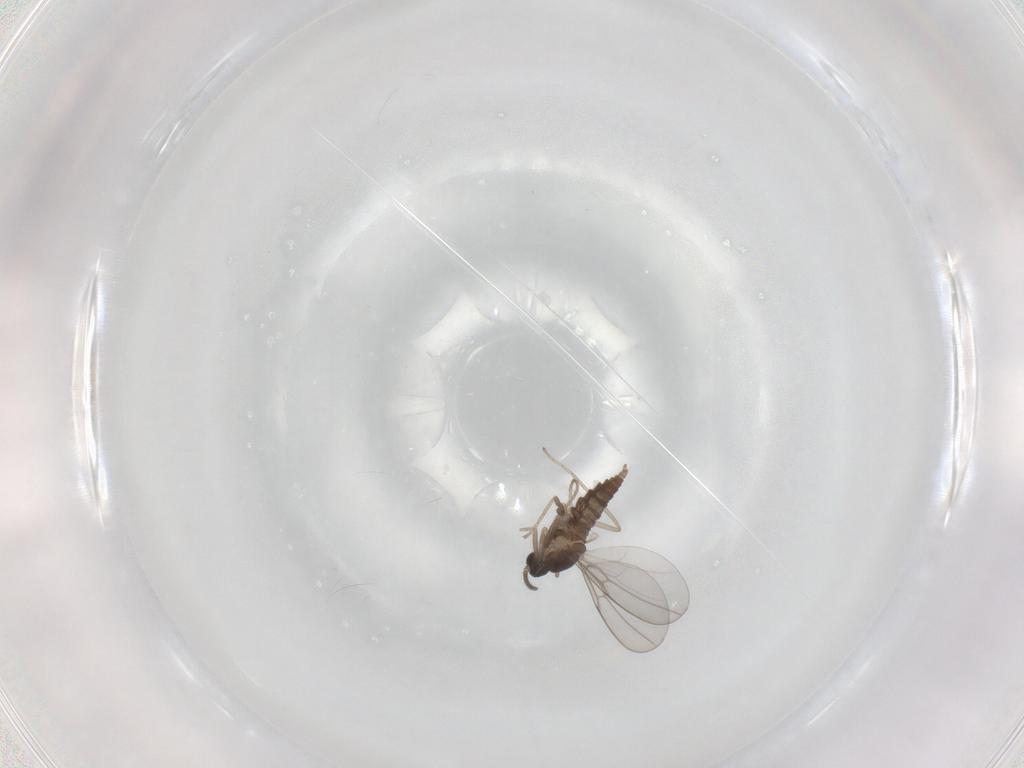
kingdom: Animalia
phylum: Arthropoda
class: Insecta
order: Diptera
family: Cecidomyiidae
